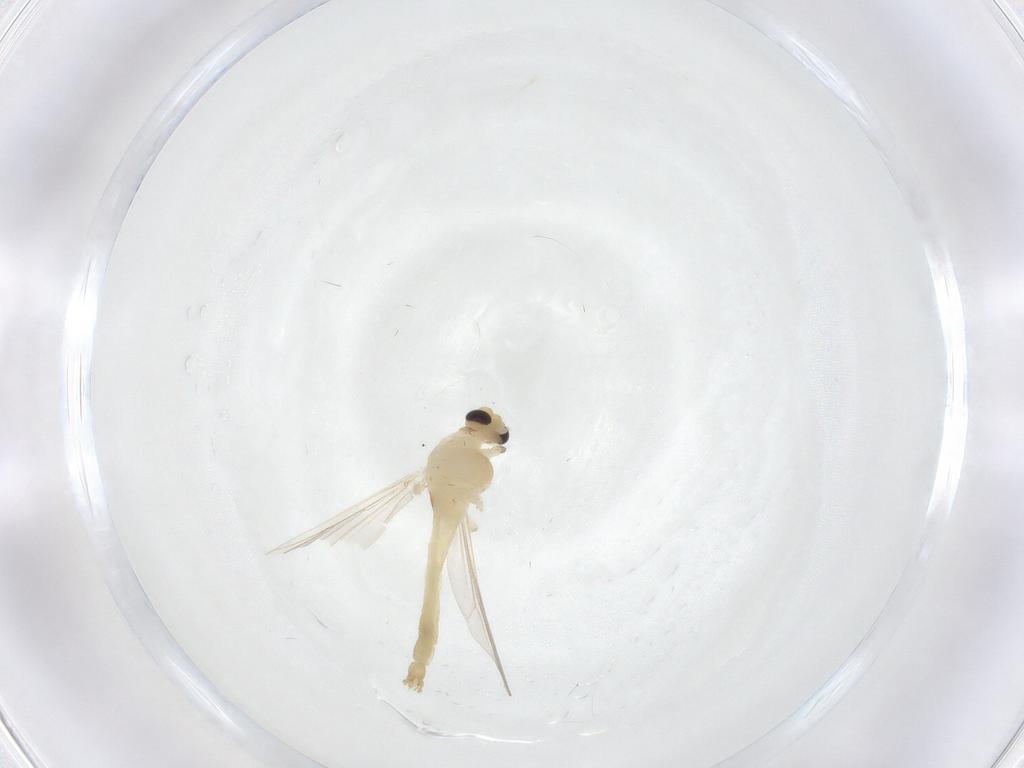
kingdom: Animalia
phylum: Arthropoda
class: Insecta
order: Diptera
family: Chironomidae
